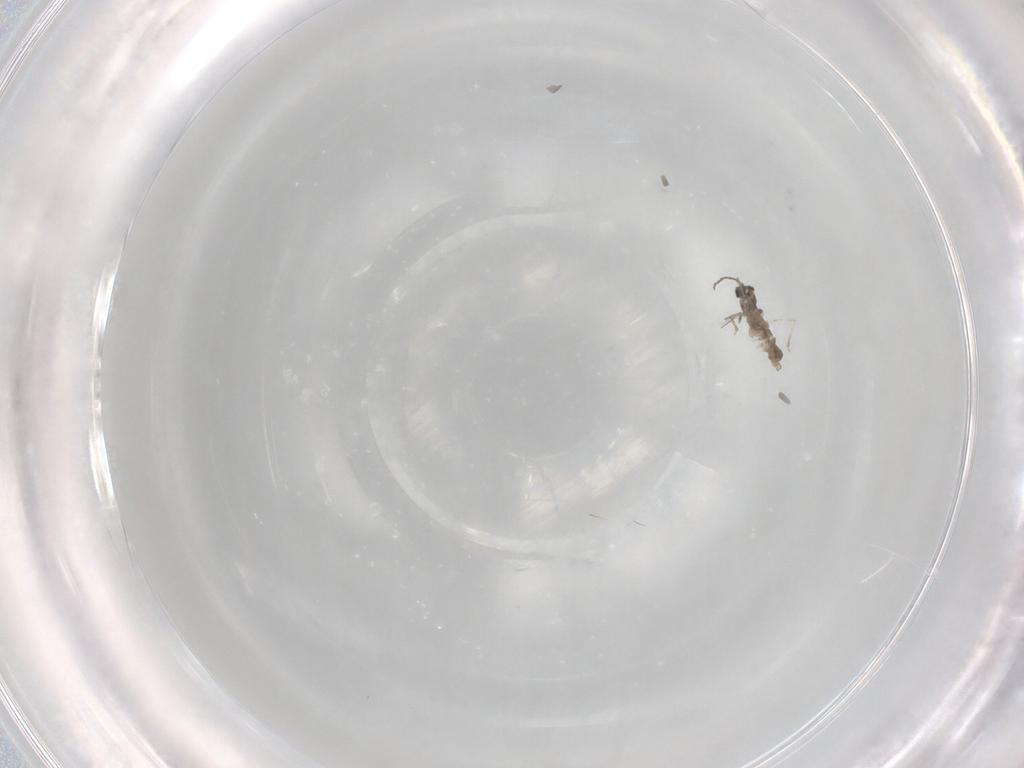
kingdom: Animalia
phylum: Arthropoda
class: Insecta
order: Diptera
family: Cecidomyiidae
